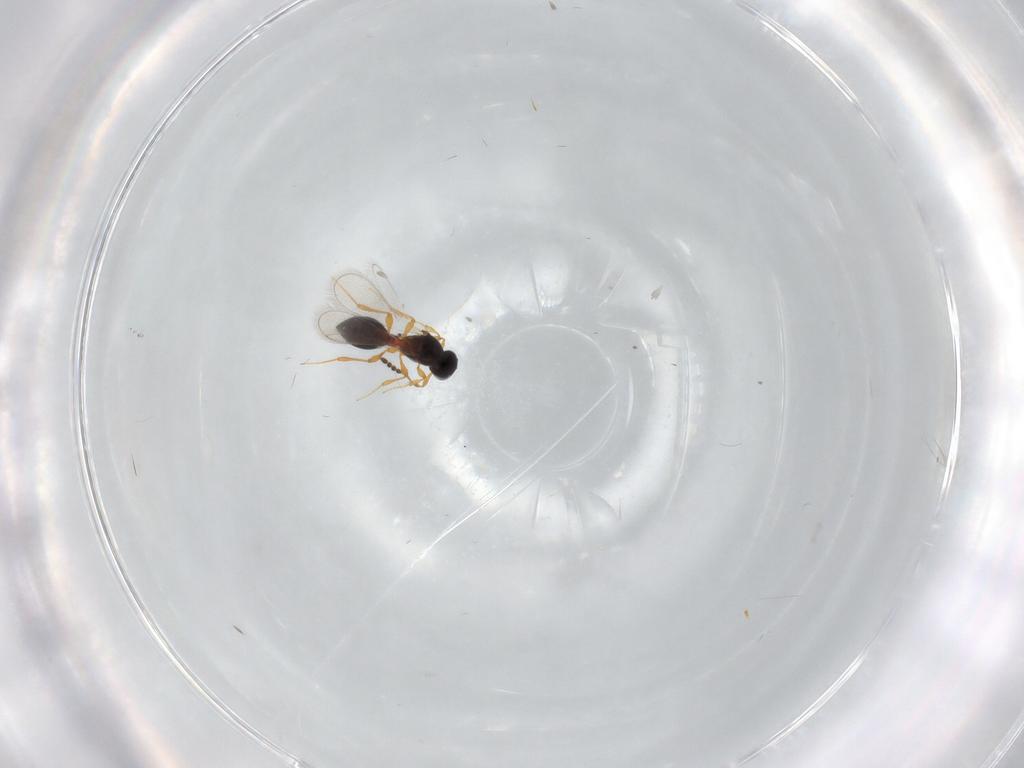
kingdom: Animalia
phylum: Arthropoda
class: Insecta
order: Hymenoptera
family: Platygastridae
